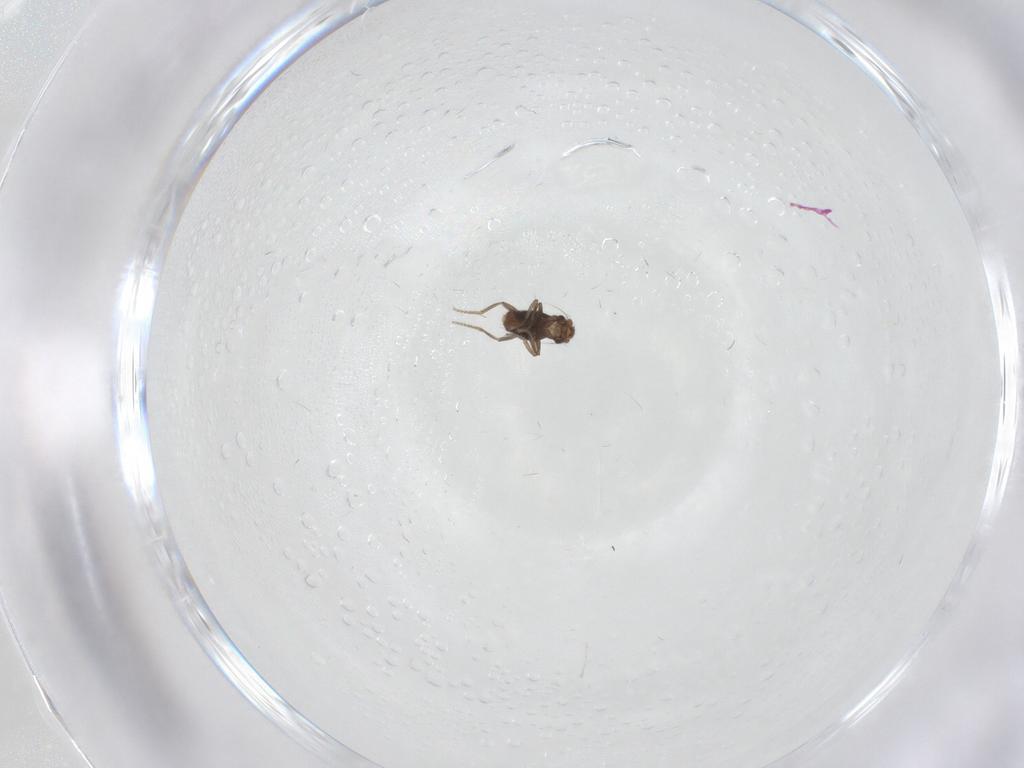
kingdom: Animalia
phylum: Arthropoda
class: Insecta
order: Diptera
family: Phoridae
